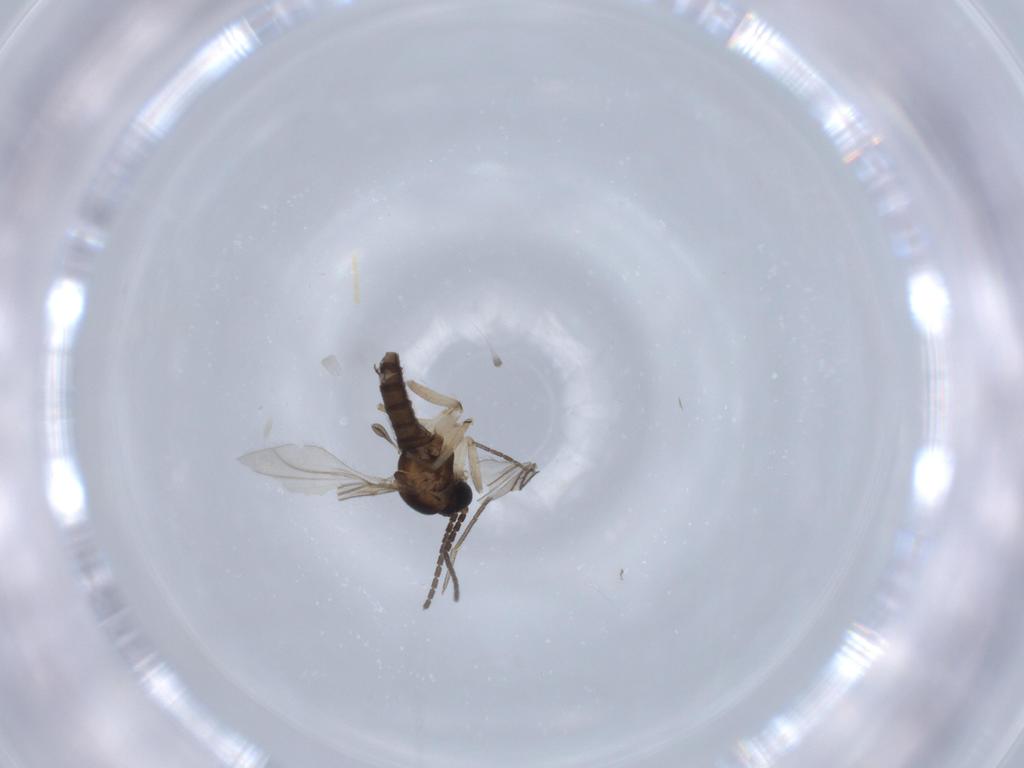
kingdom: Animalia
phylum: Arthropoda
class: Insecta
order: Diptera
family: Sciaridae
